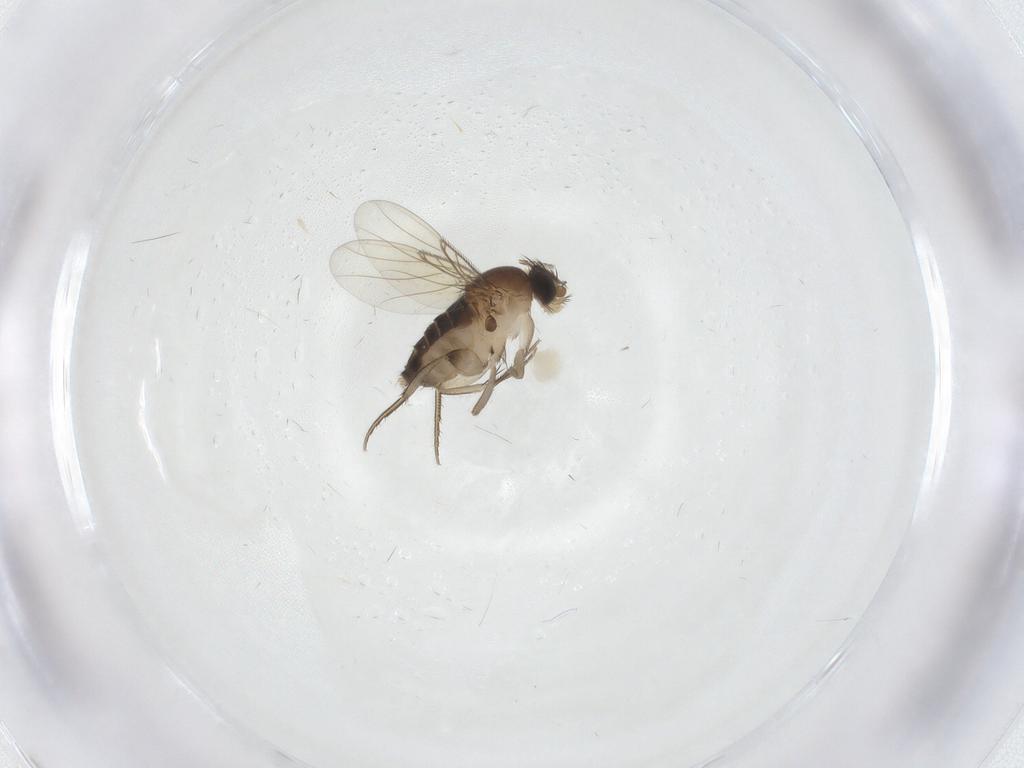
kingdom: Animalia
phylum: Arthropoda
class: Insecta
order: Diptera
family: Phoridae
